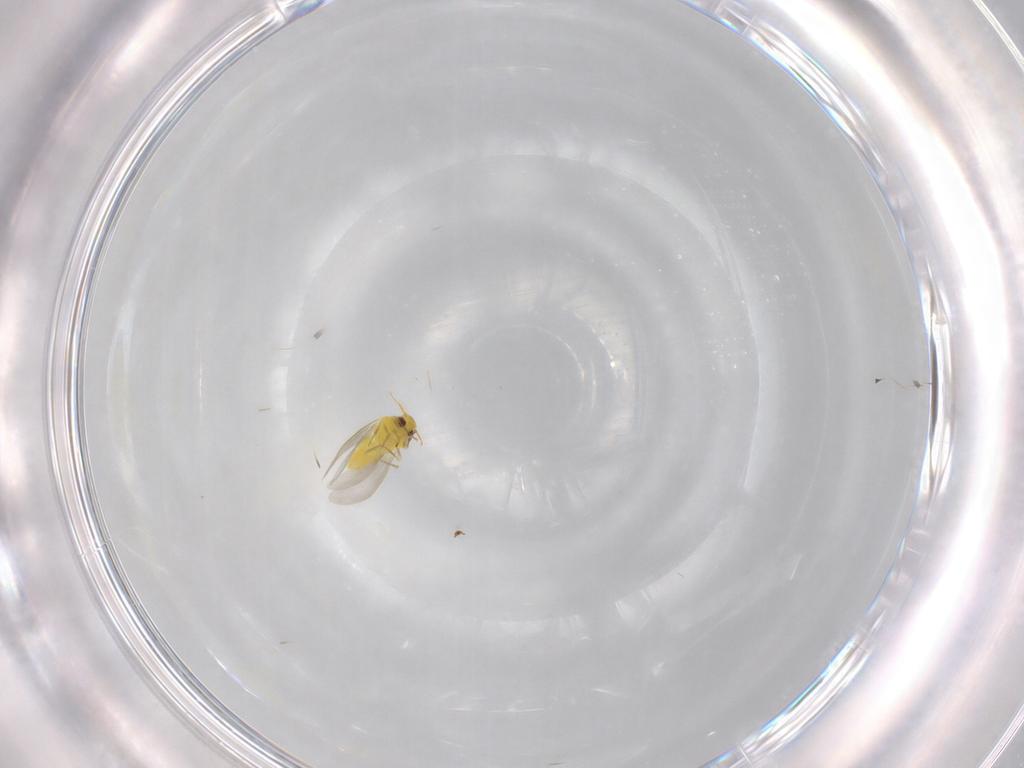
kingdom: Animalia
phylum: Arthropoda
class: Insecta
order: Hemiptera
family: Aleyrodidae
